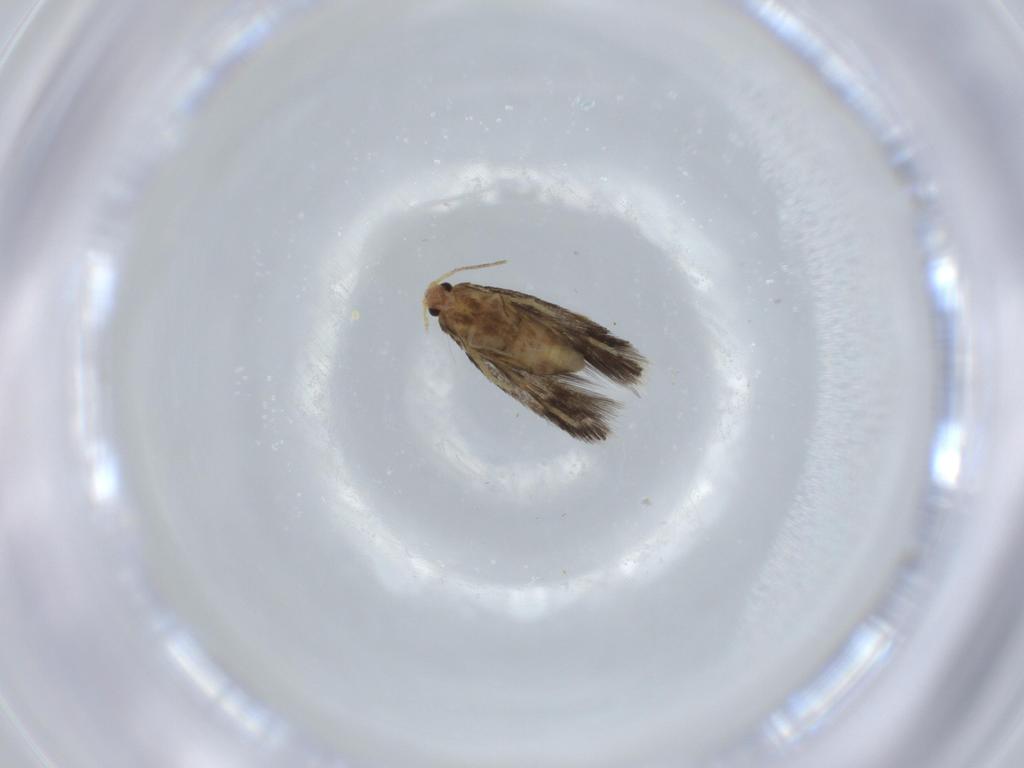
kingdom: Animalia
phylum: Arthropoda
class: Insecta
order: Lepidoptera
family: Nepticulidae
